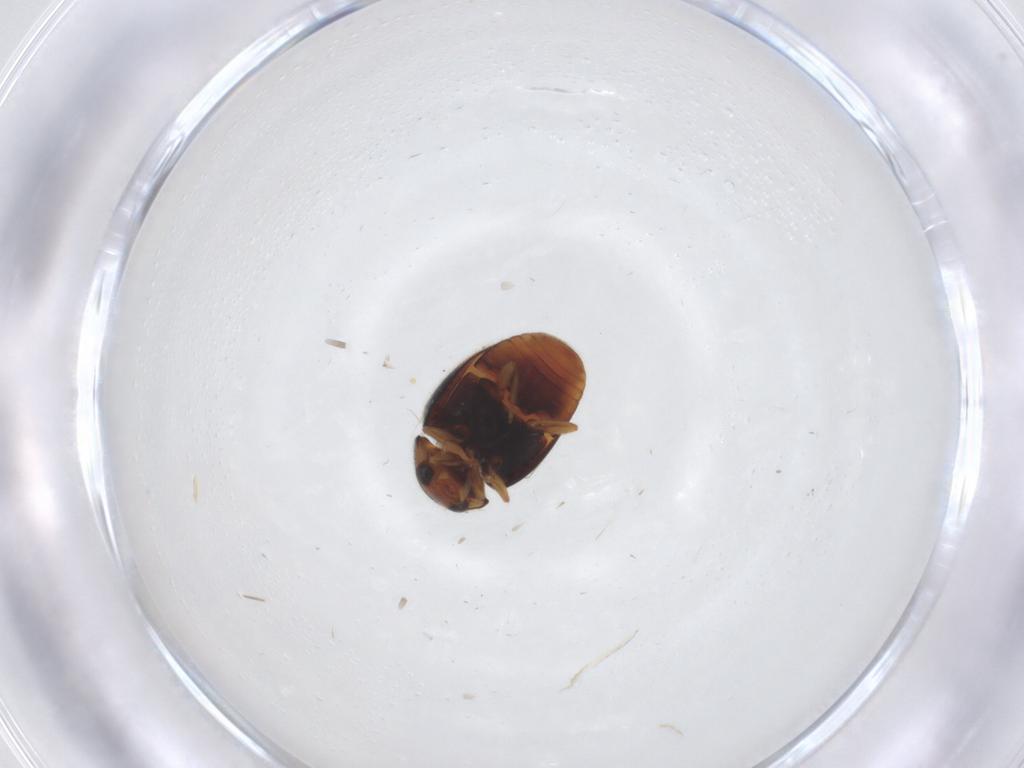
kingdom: Animalia
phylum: Arthropoda
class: Insecta
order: Coleoptera
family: Coccinellidae
